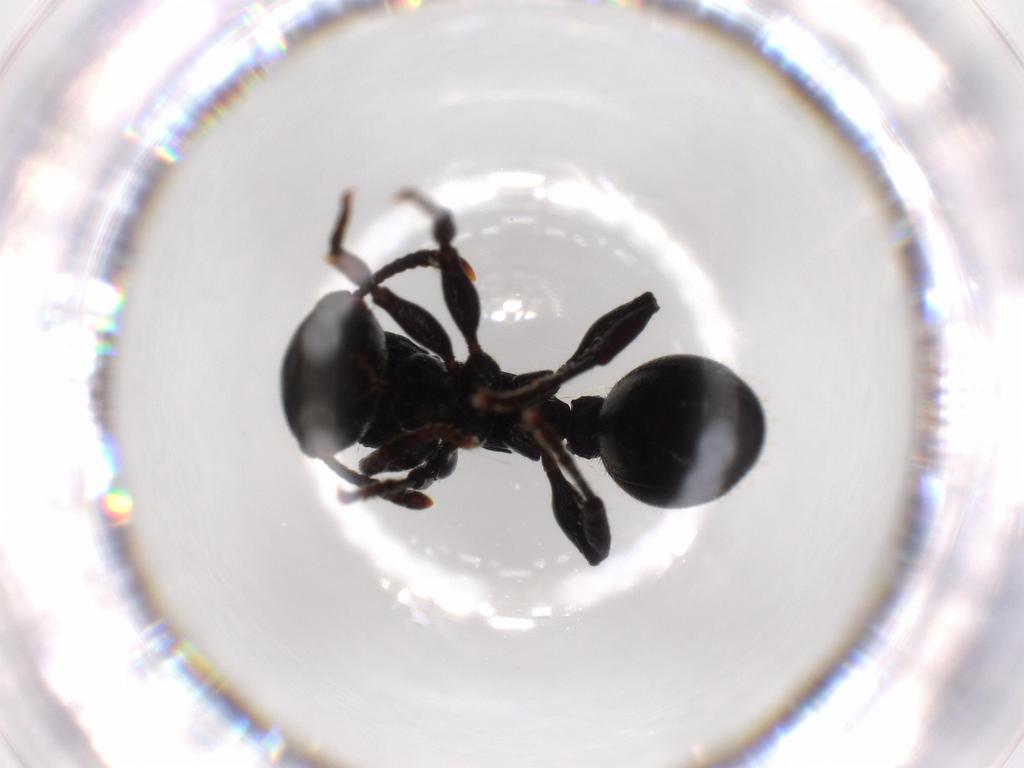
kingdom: Animalia
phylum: Arthropoda
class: Insecta
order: Hymenoptera
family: Formicidae
